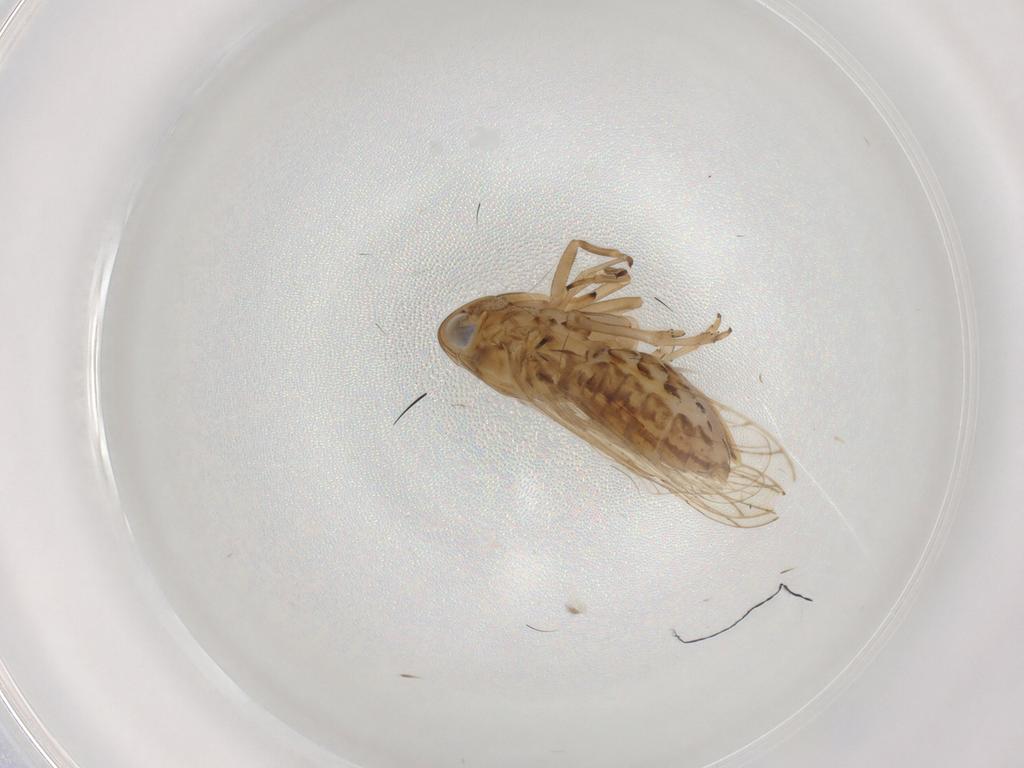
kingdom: Animalia
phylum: Arthropoda
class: Insecta
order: Hemiptera
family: Delphacidae
